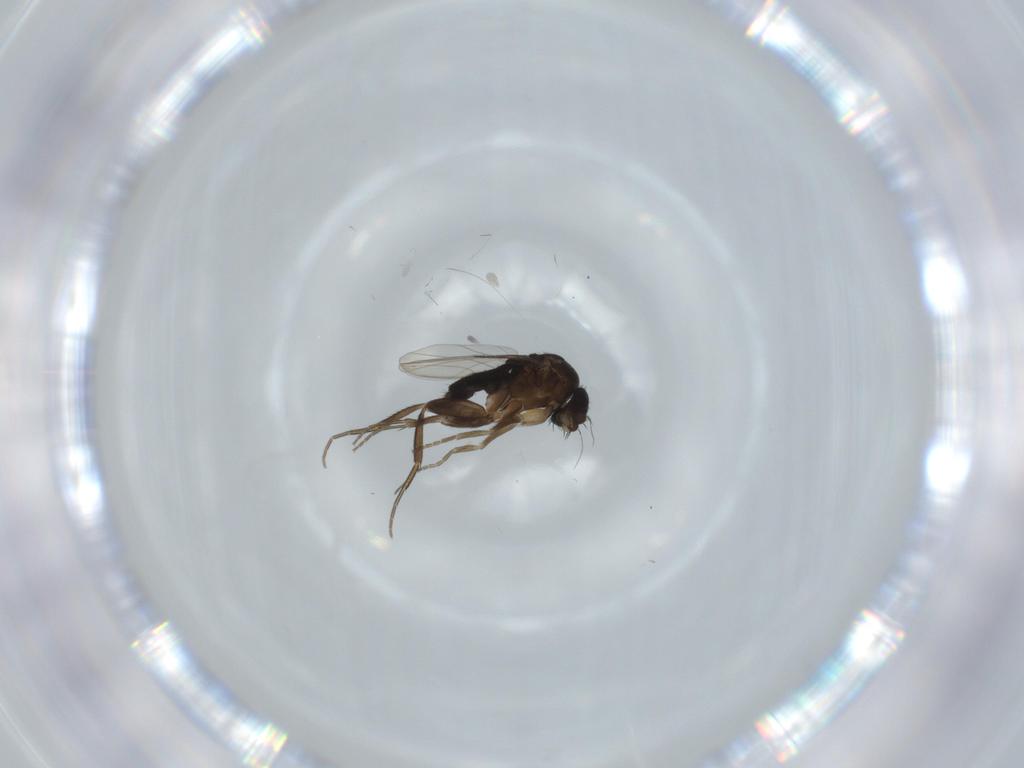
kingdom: Animalia
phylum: Arthropoda
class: Insecta
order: Diptera
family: Phoridae
